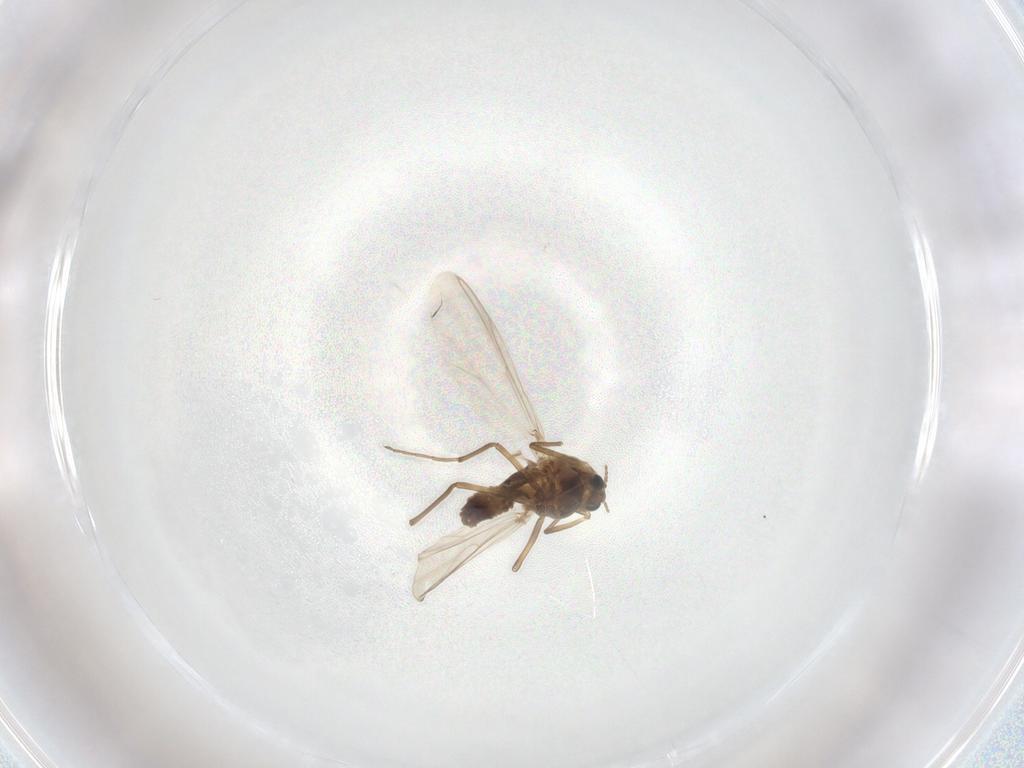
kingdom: Animalia
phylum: Arthropoda
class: Insecta
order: Diptera
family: Chironomidae
